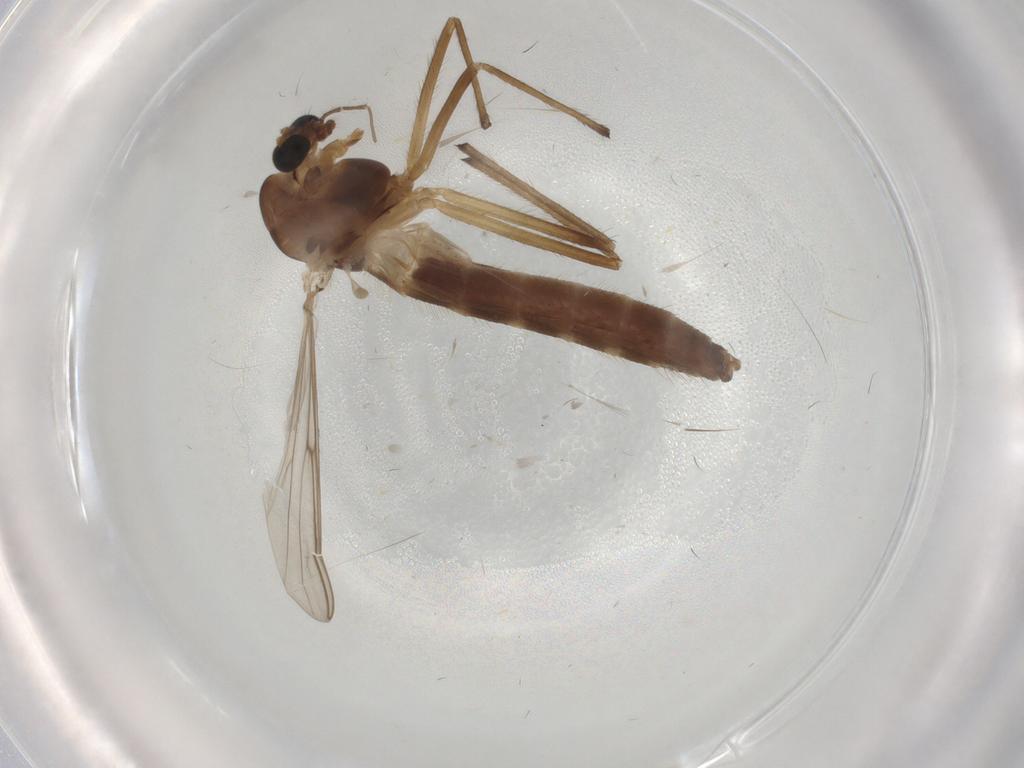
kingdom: Animalia
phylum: Arthropoda
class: Insecta
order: Diptera
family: Chironomidae
